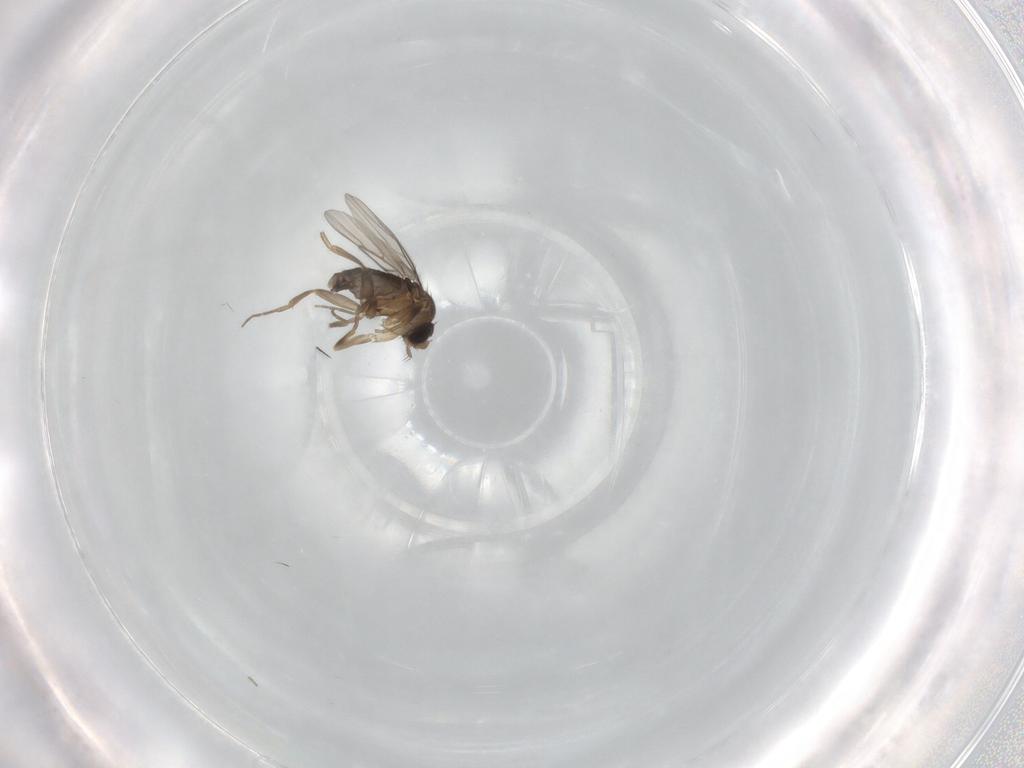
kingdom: Animalia
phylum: Arthropoda
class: Insecta
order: Diptera
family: Phoridae
